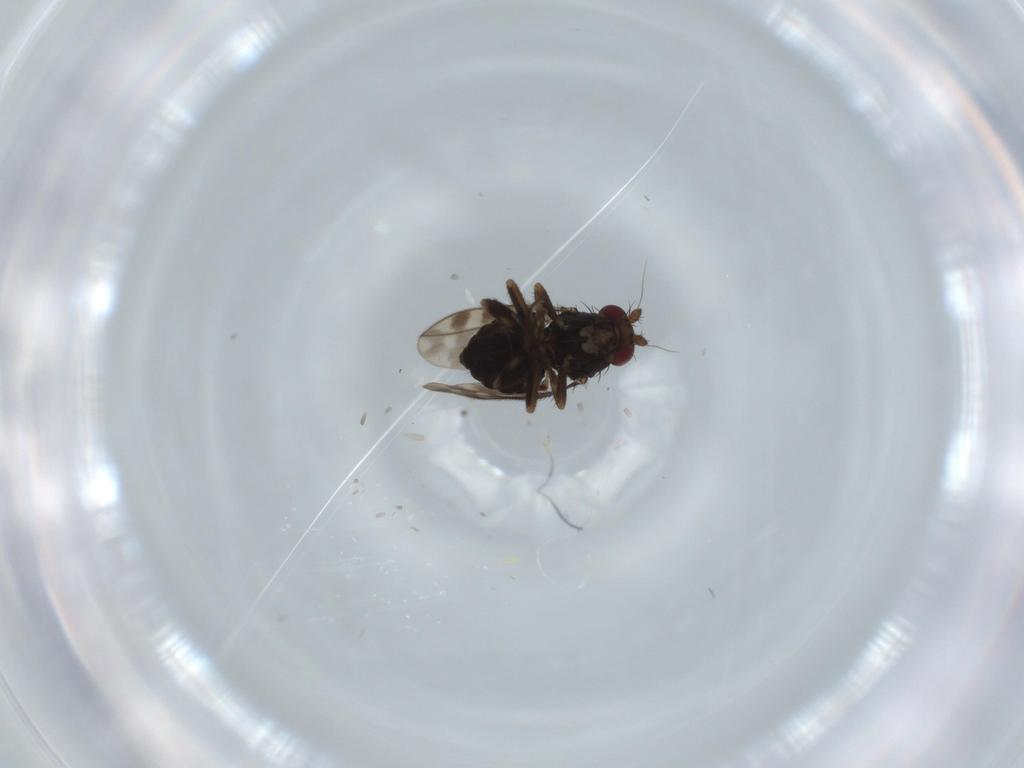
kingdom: Animalia
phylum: Arthropoda
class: Insecta
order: Diptera
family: Sphaeroceridae
